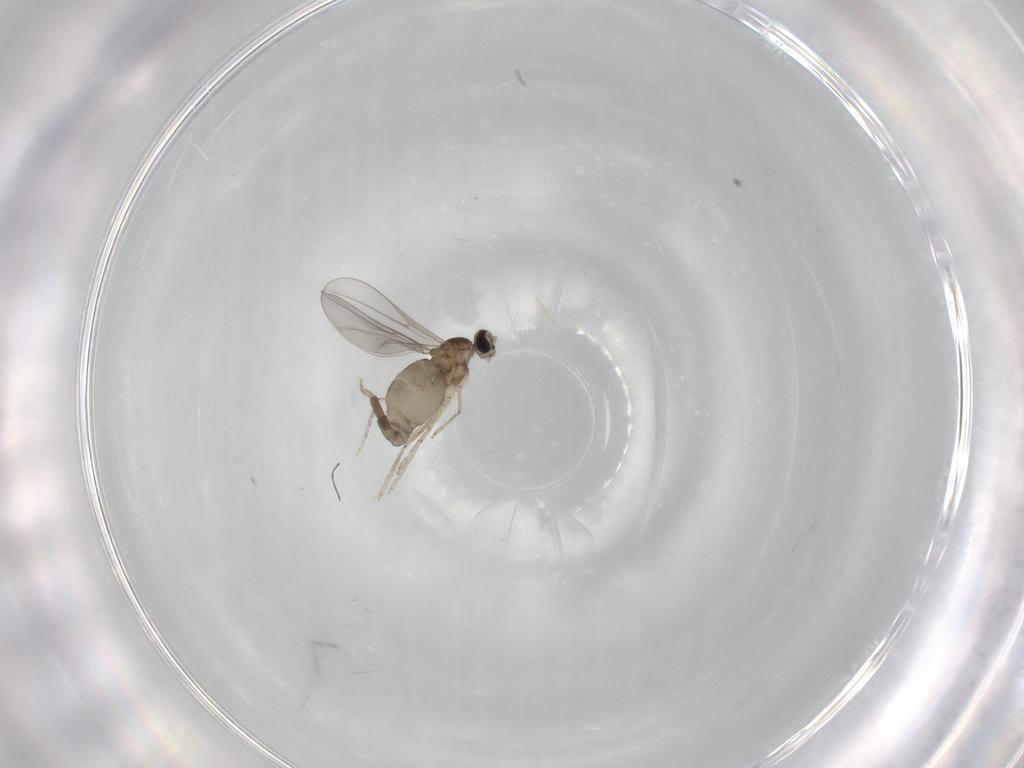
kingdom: Animalia
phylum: Arthropoda
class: Insecta
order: Diptera
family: Cecidomyiidae
